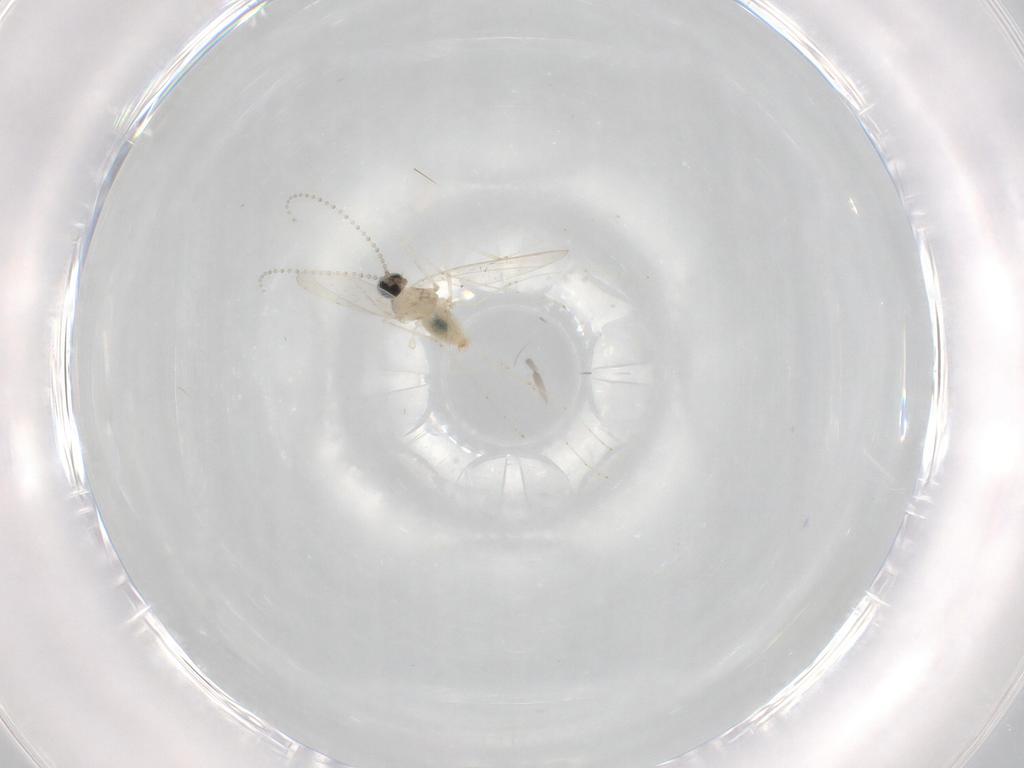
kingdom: Animalia
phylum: Arthropoda
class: Insecta
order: Diptera
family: Cecidomyiidae
